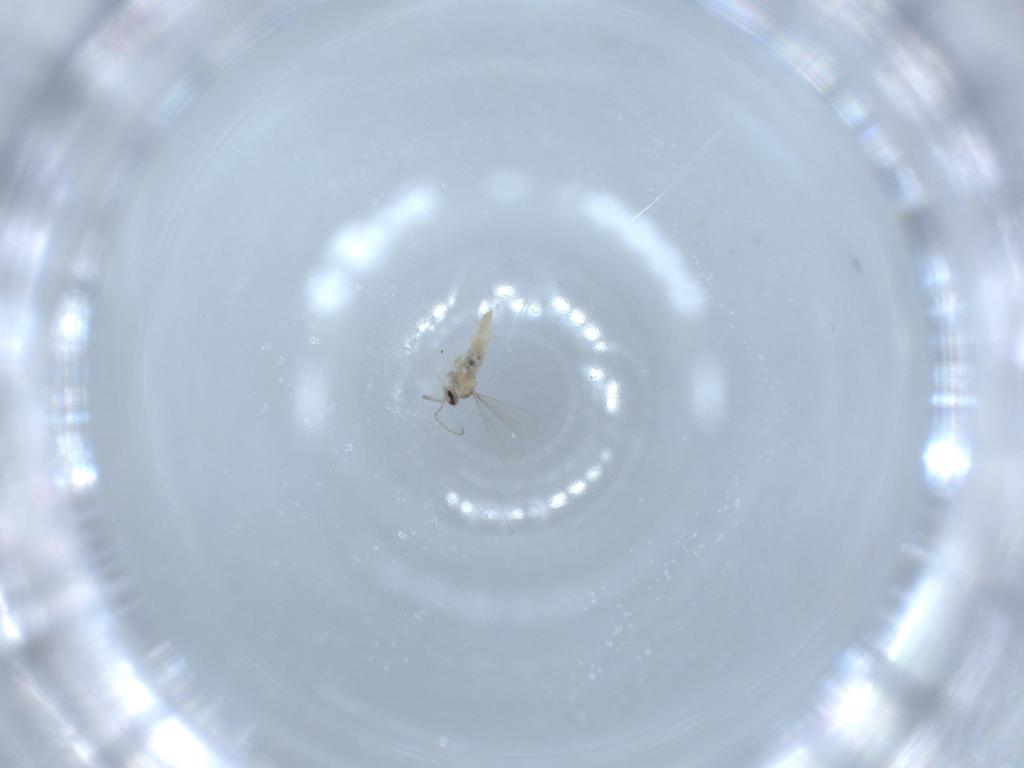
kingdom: Animalia
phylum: Arthropoda
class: Insecta
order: Diptera
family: Cecidomyiidae
